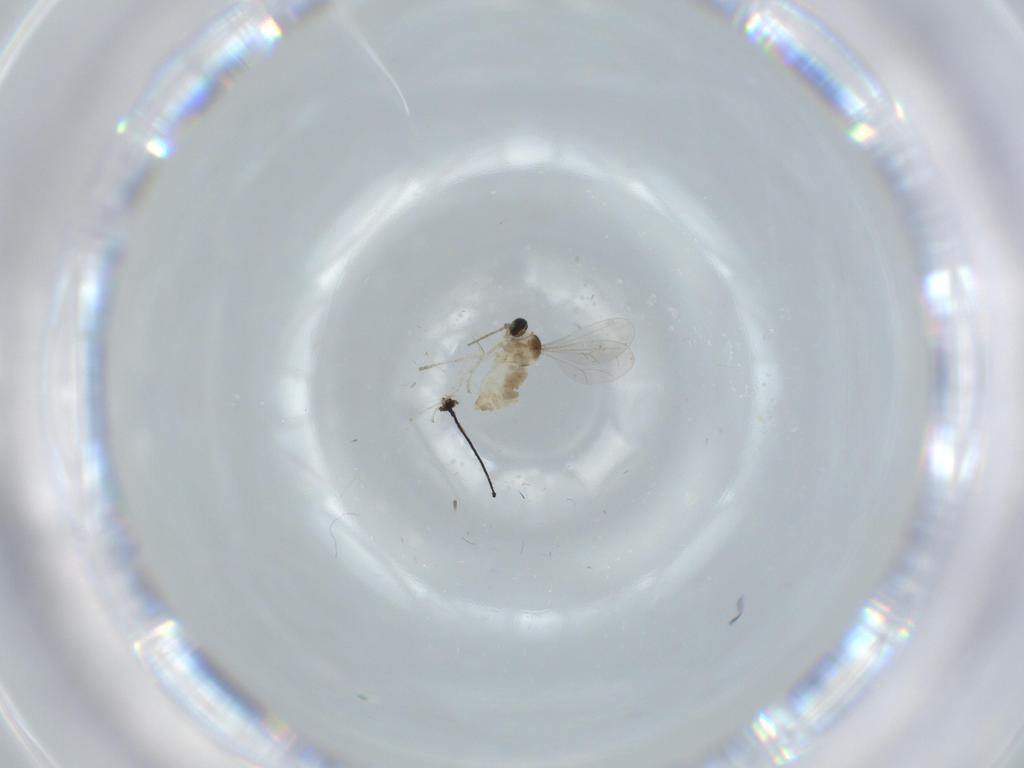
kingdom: Animalia
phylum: Arthropoda
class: Insecta
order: Diptera
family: Cecidomyiidae
